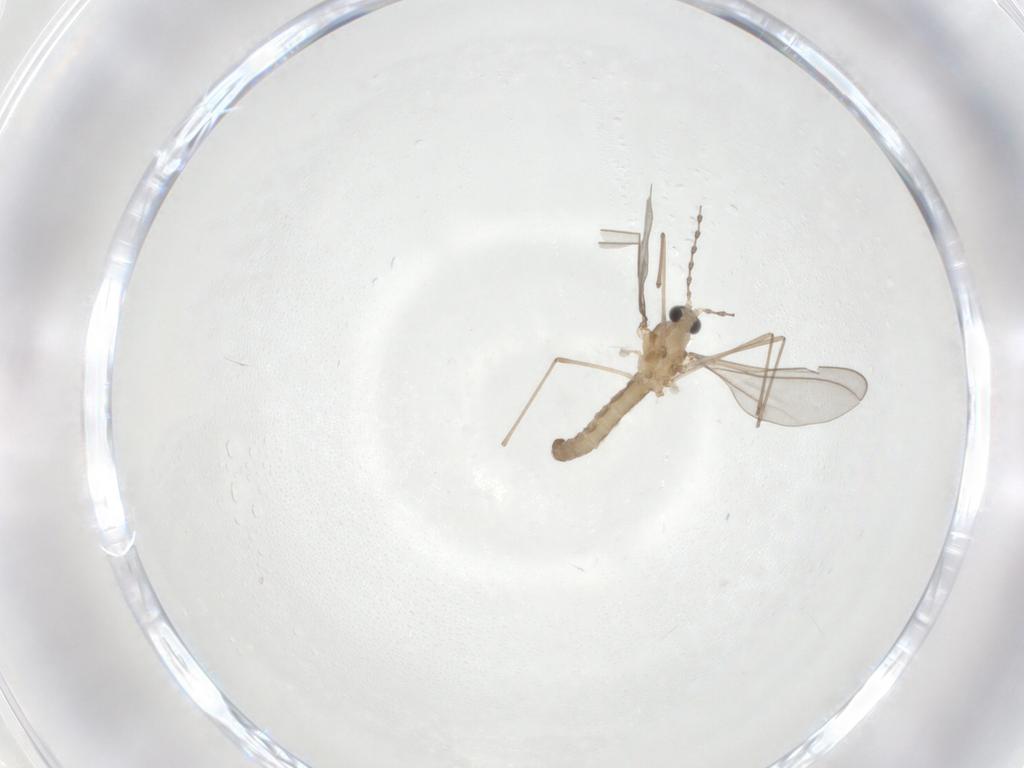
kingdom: Animalia
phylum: Arthropoda
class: Insecta
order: Diptera
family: Cecidomyiidae
